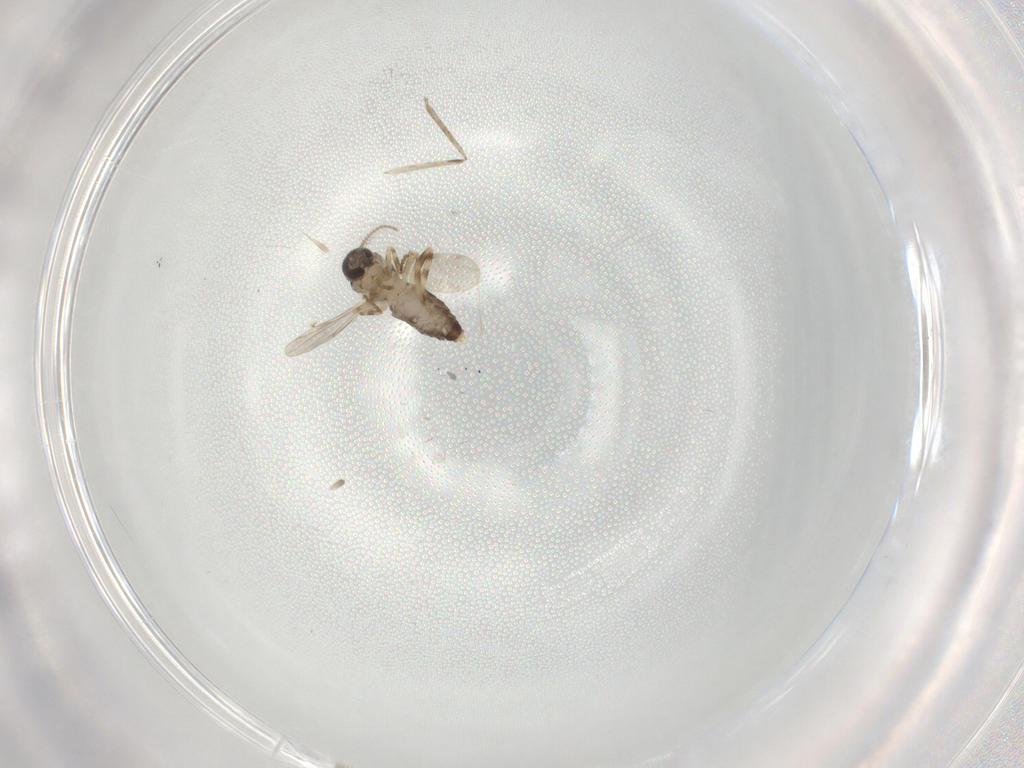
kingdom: Animalia
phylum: Arthropoda
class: Insecta
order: Diptera
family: Ceratopogonidae
